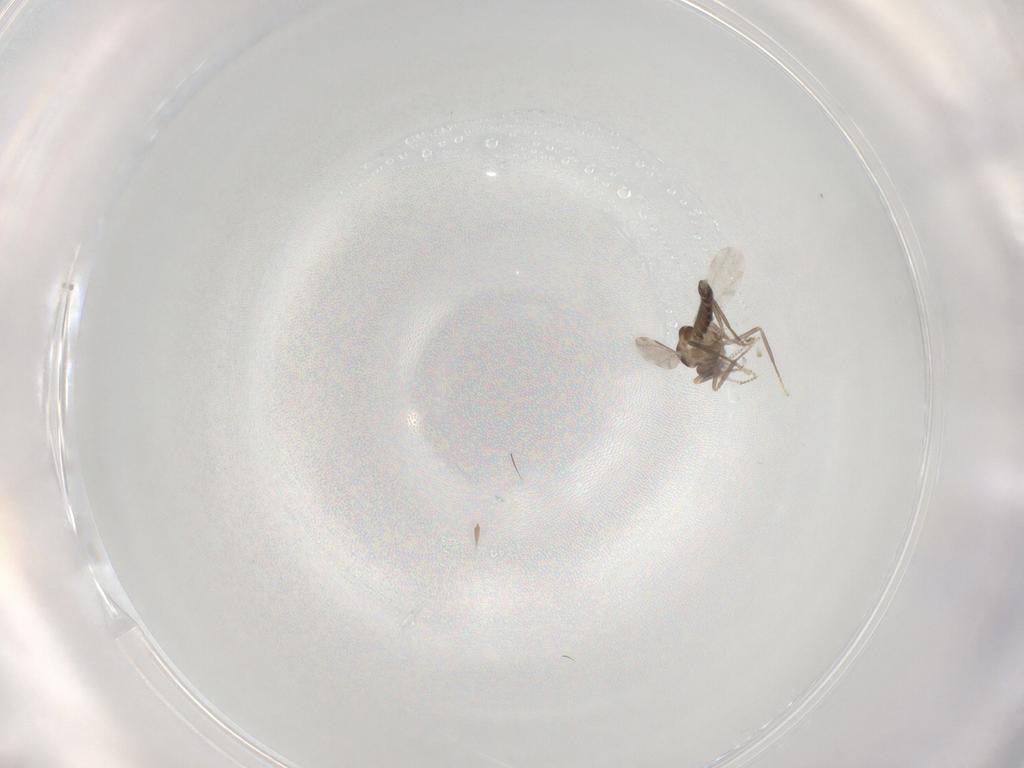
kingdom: Animalia
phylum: Arthropoda
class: Insecta
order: Diptera
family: Ceratopogonidae
